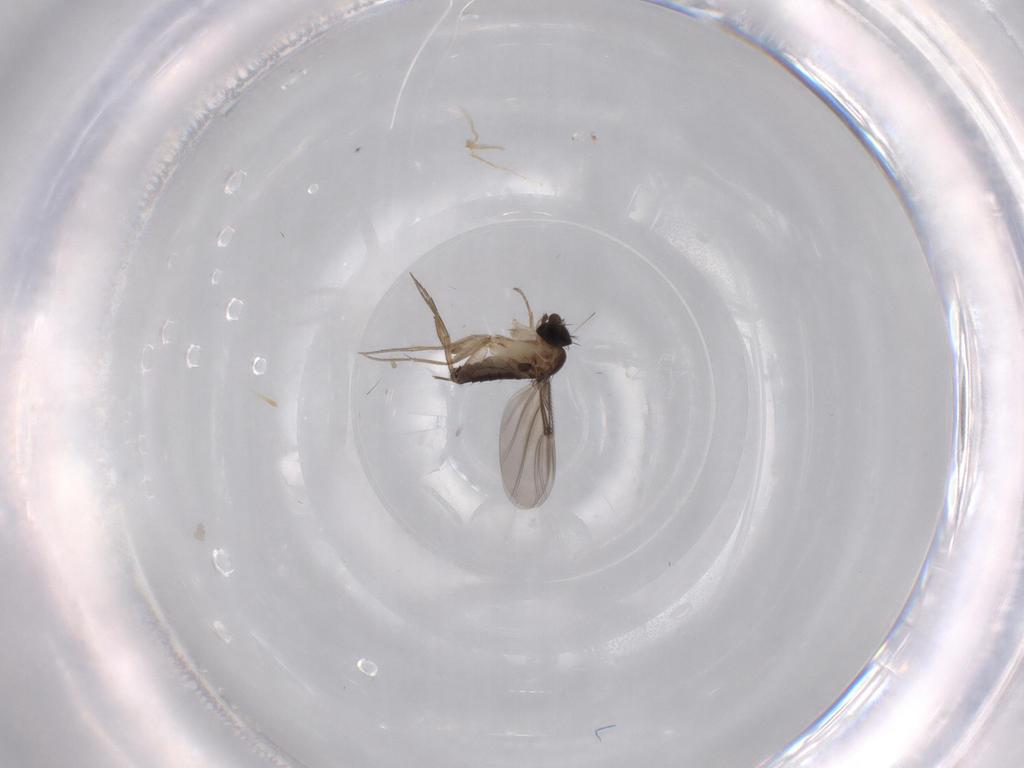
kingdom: Animalia
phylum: Arthropoda
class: Insecta
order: Diptera
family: Phoridae
